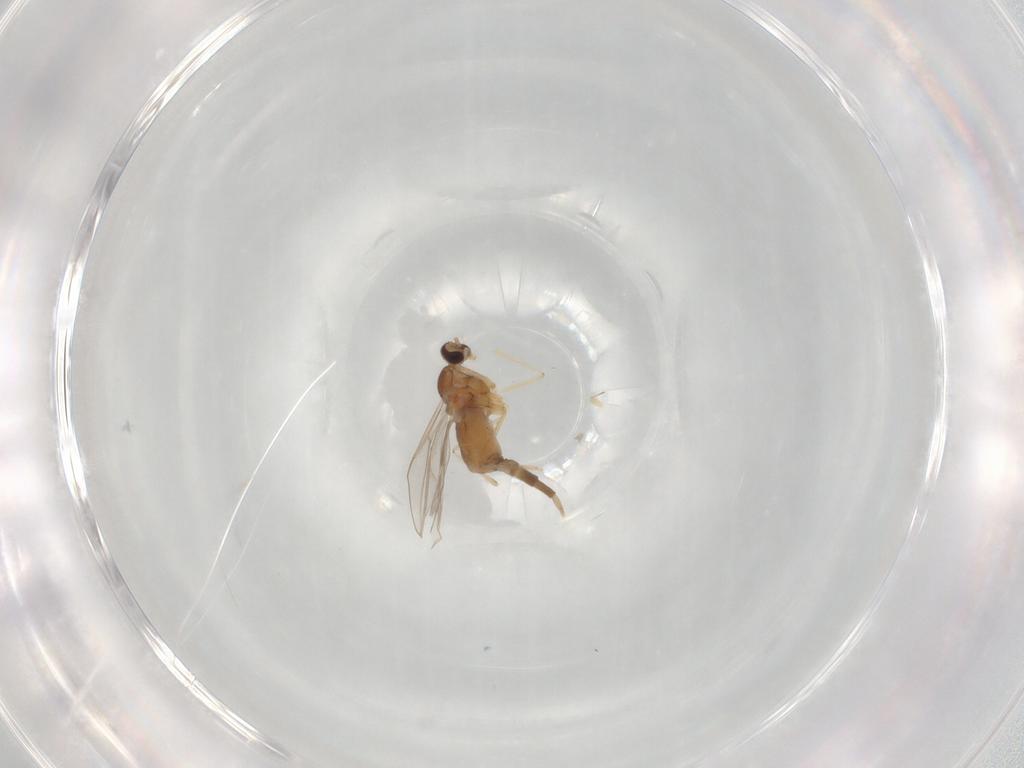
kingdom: Animalia
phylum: Arthropoda
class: Insecta
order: Diptera
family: Cecidomyiidae
